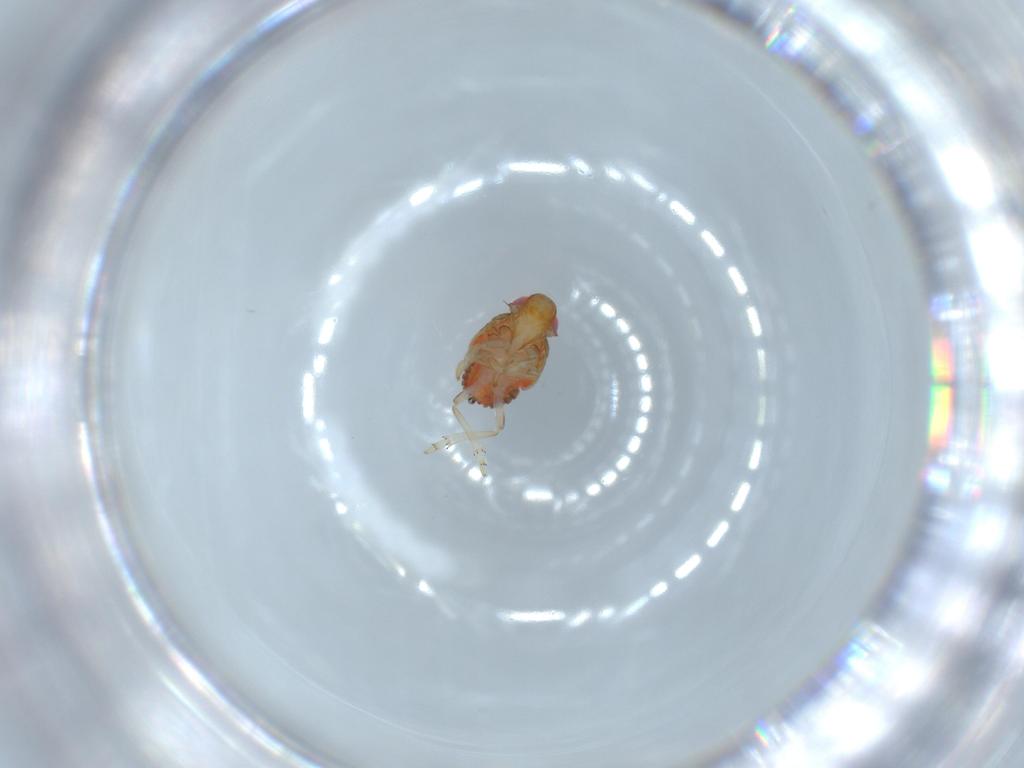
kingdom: Animalia
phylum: Arthropoda
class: Insecta
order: Hemiptera
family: Issidae
